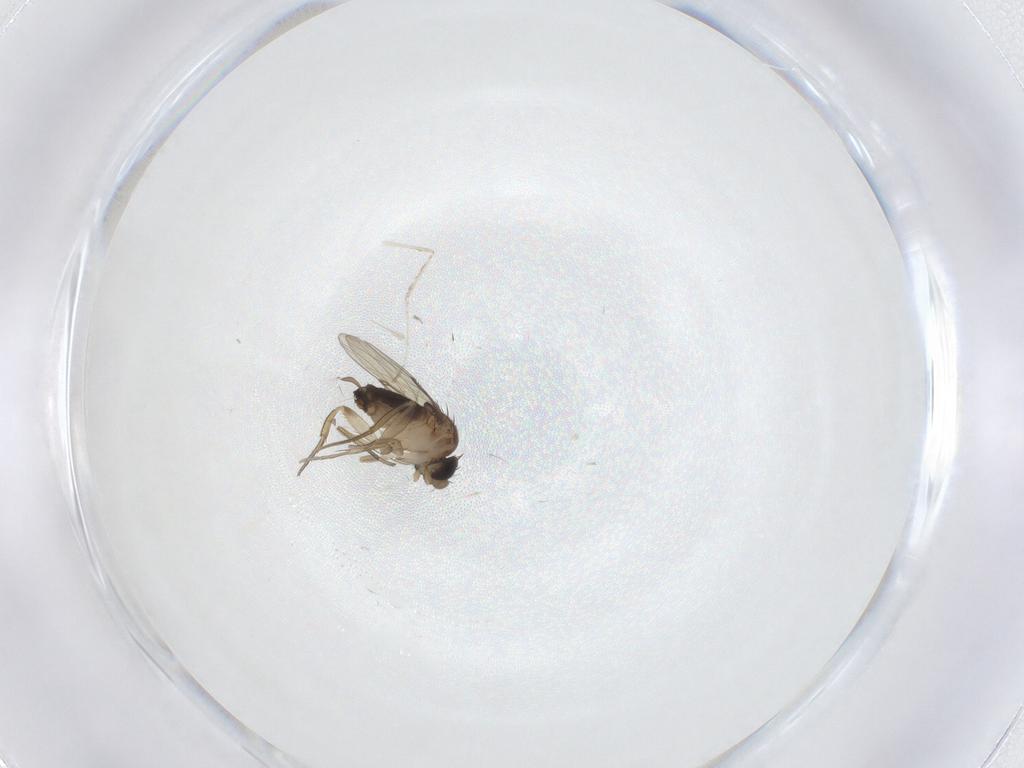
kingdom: Animalia
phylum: Arthropoda
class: Insecta
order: Diptera
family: Cecidomyiidae
